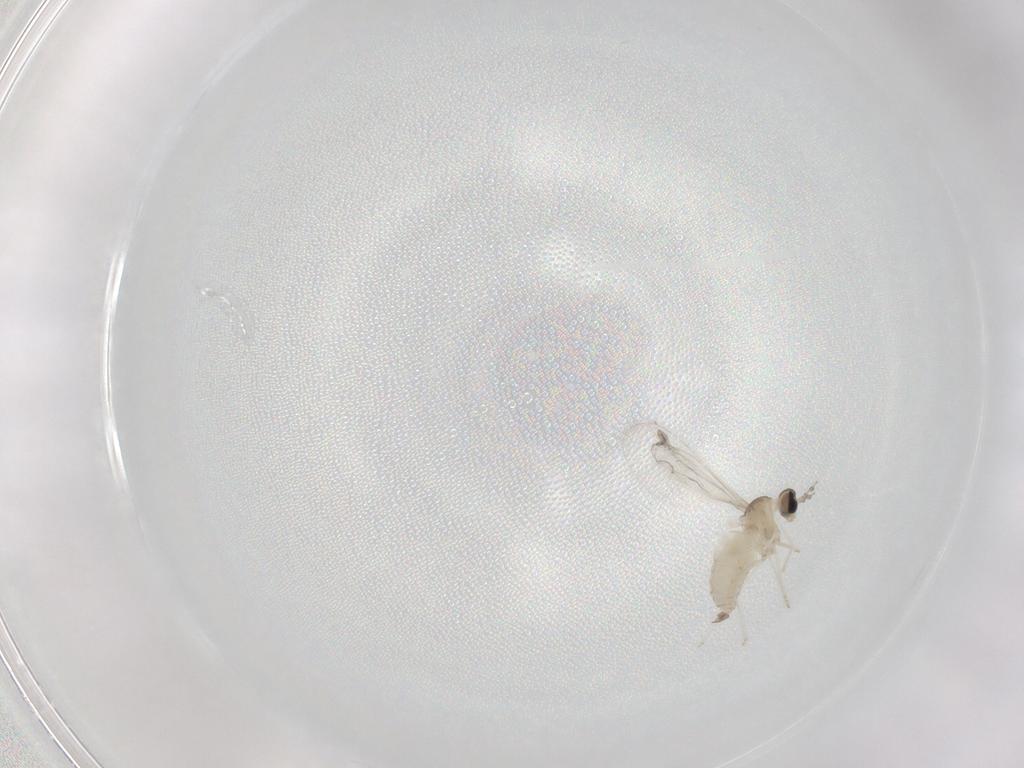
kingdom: Animalia
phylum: Arthropoda
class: Insecta
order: Diptera
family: Cecidomyiidae
